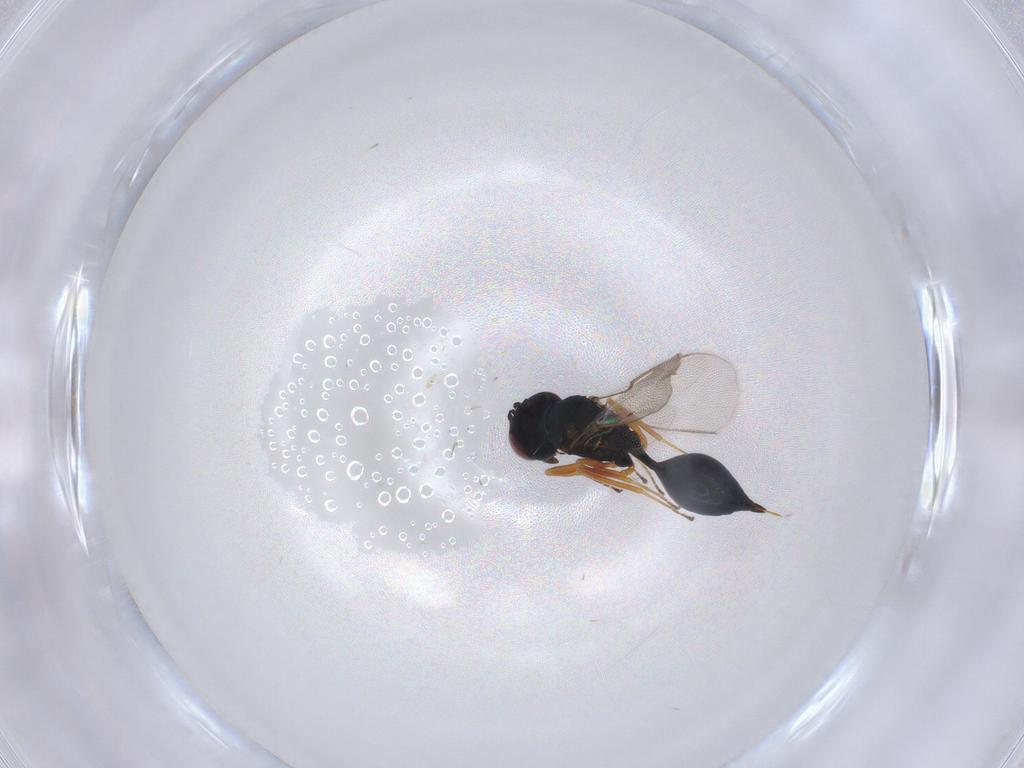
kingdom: Animalia
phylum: Arthropoda
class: Insecta
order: Hymenoptera
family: Pteromalidae
